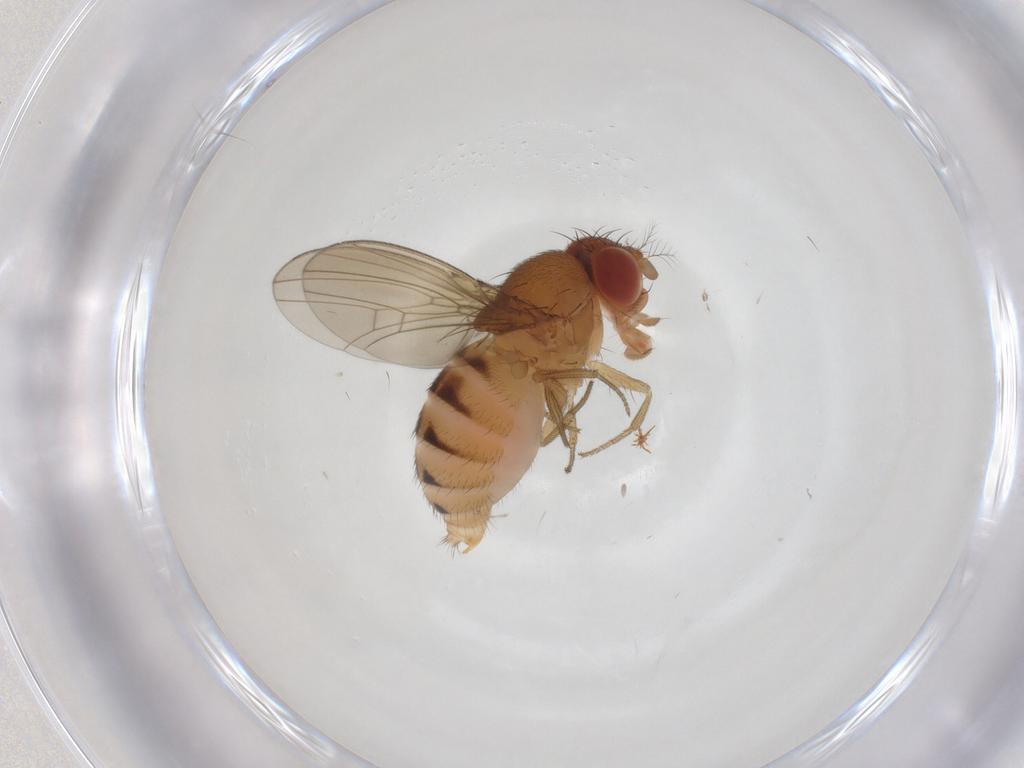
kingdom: Animalia
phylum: Arthropoda
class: Insecta
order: Diptera
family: Drosophilidae
